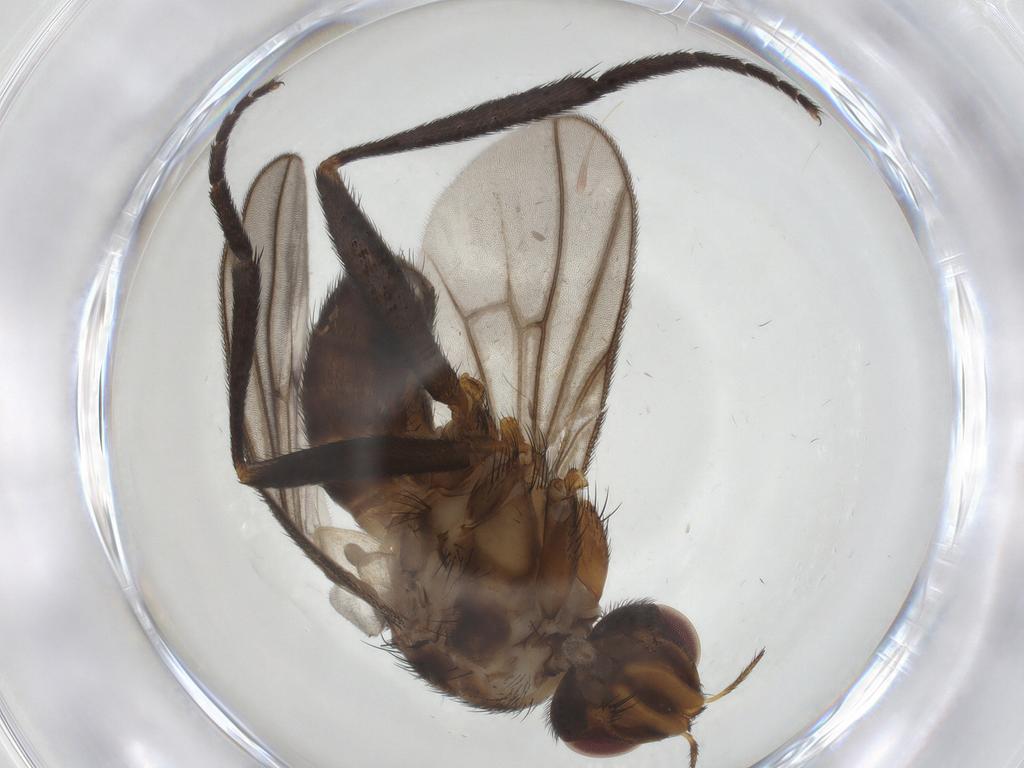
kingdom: Animalia
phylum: Arthropoda
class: Insecta
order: Diptera
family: Calliphoridae
